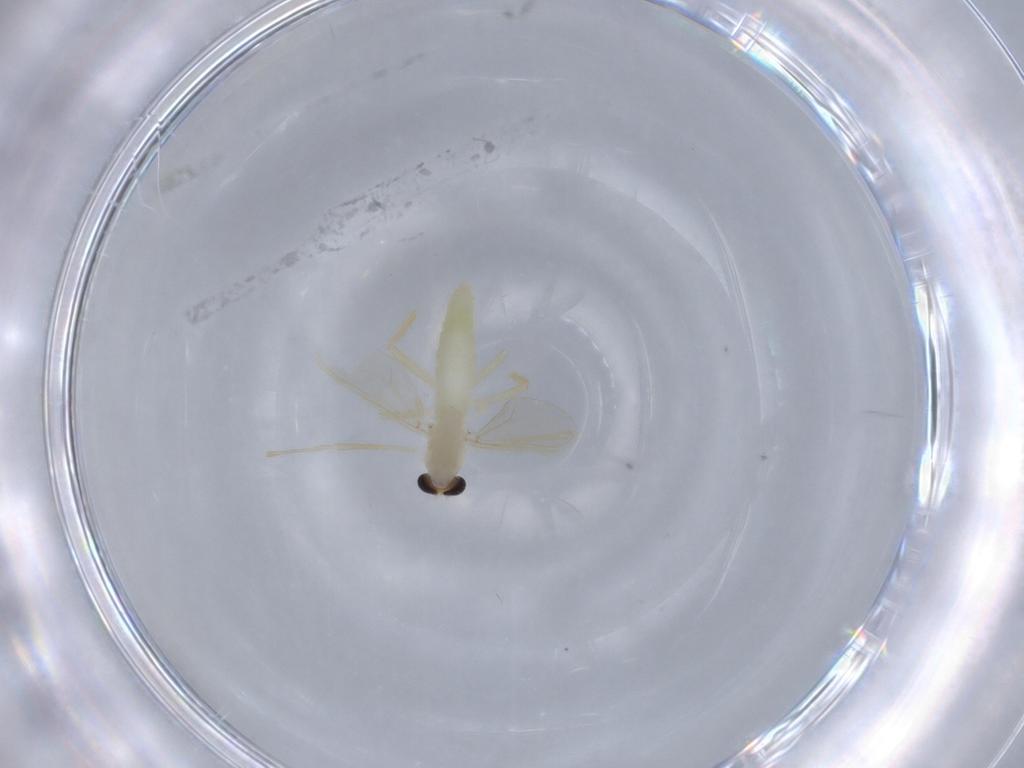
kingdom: Animalia
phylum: Arthropoda
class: Insecta
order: Diptera
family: Chironomidae
